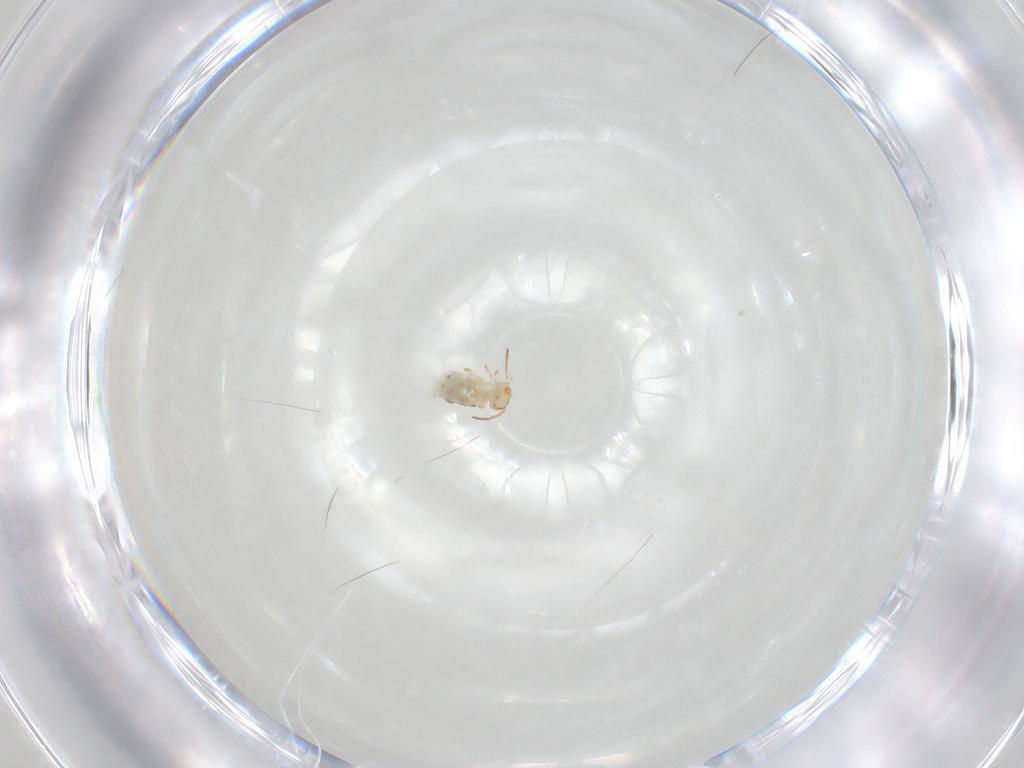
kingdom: Animalia
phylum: Arthropoda
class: Collembola
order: Symphypleona
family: Bourletiellidae
